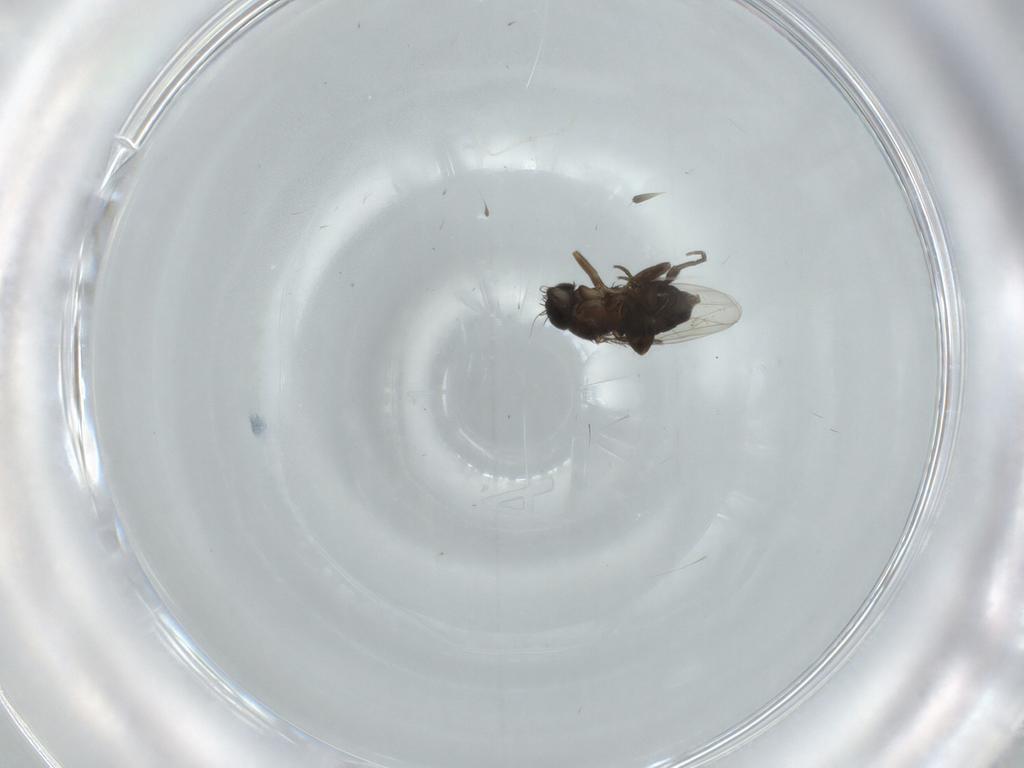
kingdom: Animalia
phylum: Arthropoda
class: Insecta
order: Diptera
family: Phoridae
